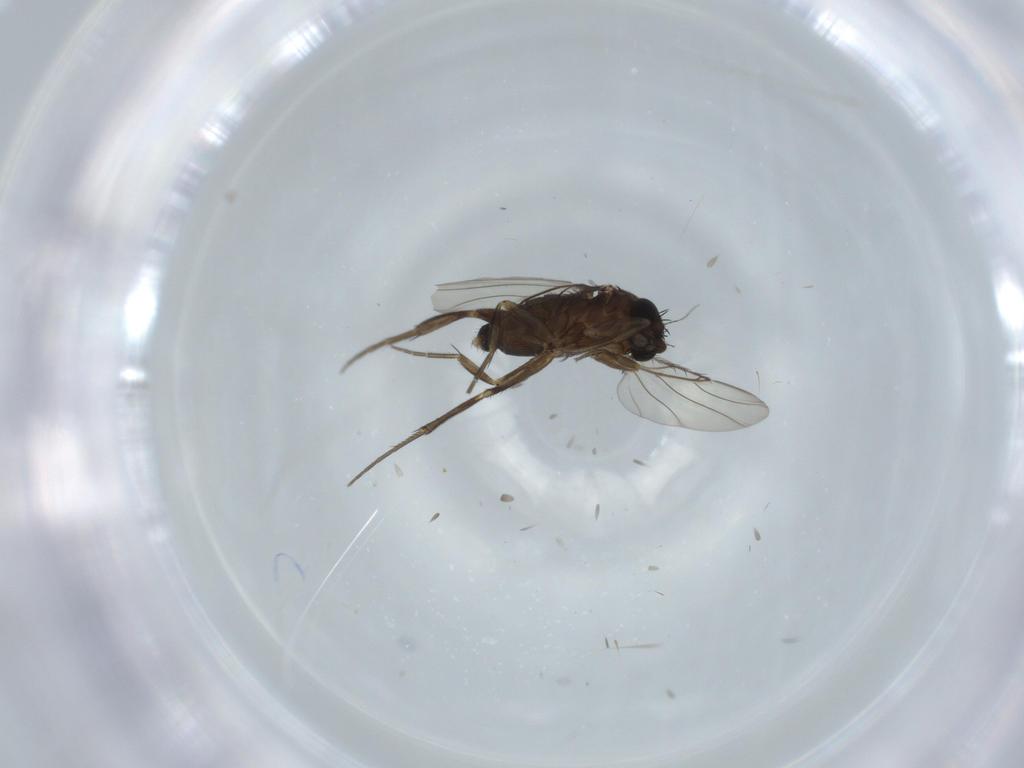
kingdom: Animalia
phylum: Arthropoda
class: Insecta
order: Diptera
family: Phoridae
